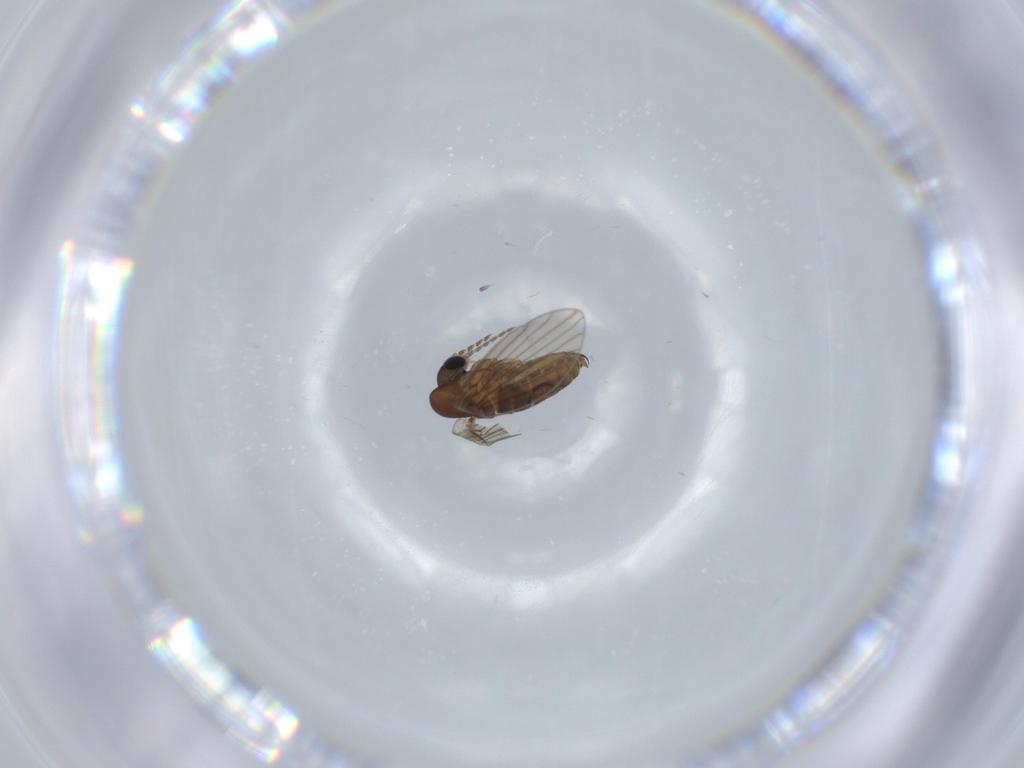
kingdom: Animalia
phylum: Arthropoda
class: Insecta
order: Diptera
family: Psychodidae
